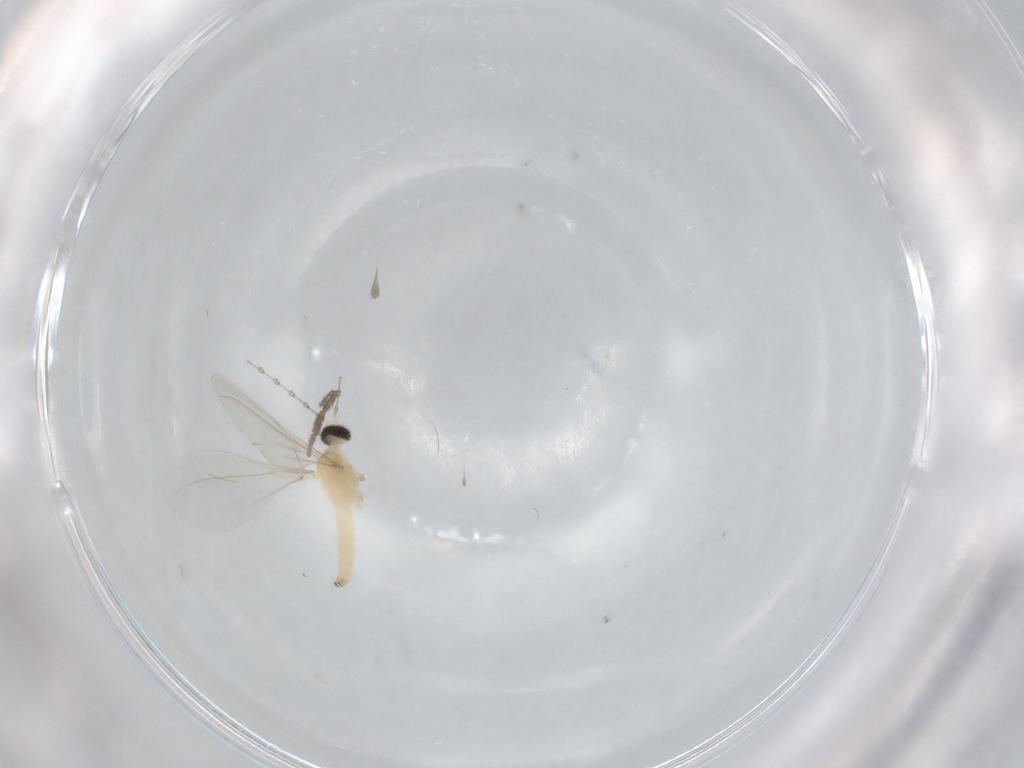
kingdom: Animalia
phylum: Arthropoda
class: Insecta
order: Diptera
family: Cecidomyiidae
